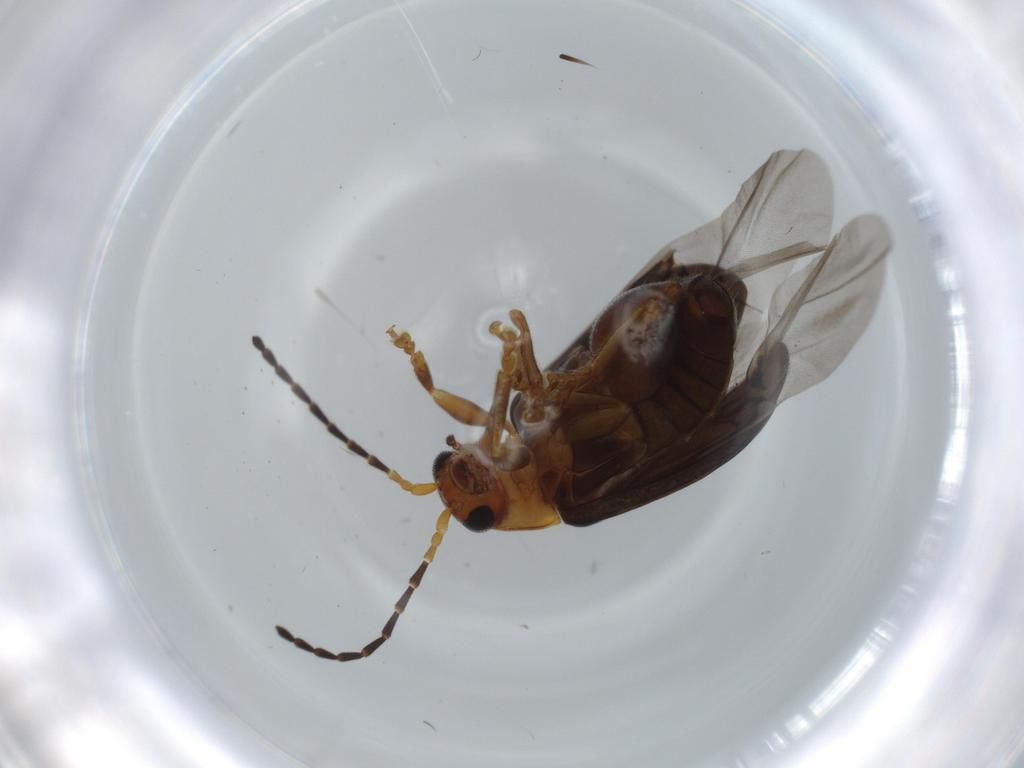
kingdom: Animalia
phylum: Arthropoda
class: Insecta
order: Coleoptera
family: Chrysomelidae
